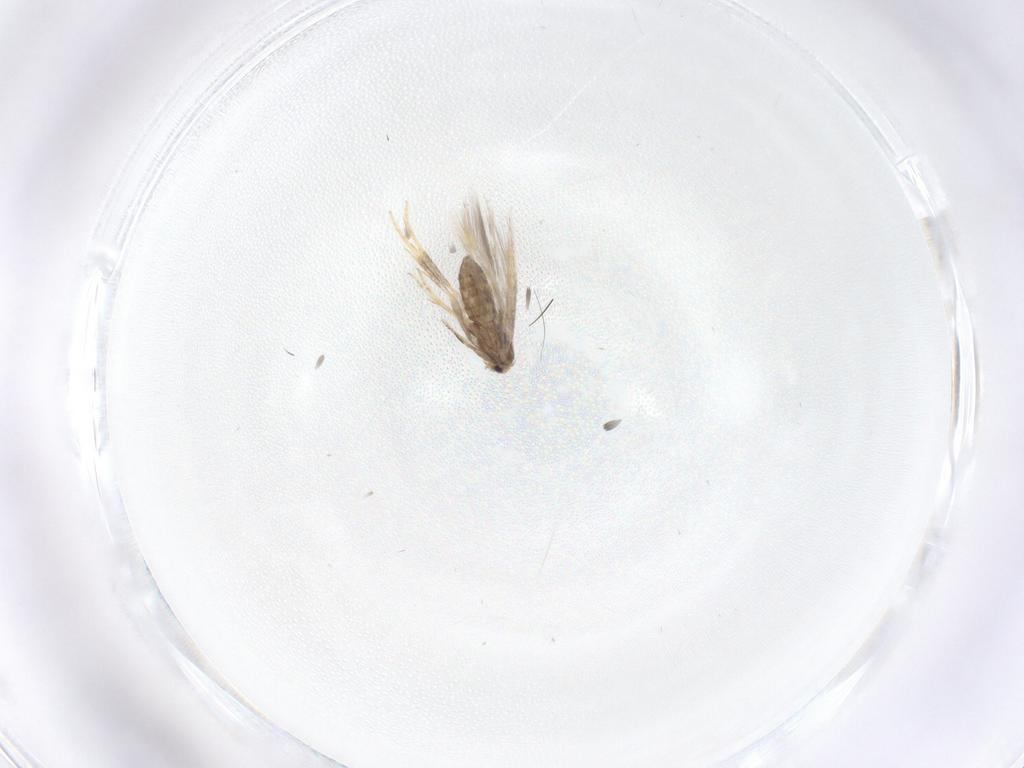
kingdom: Animalia
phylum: Arthropoda
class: Insecta
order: Lepidoptera
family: Nepticulidae
